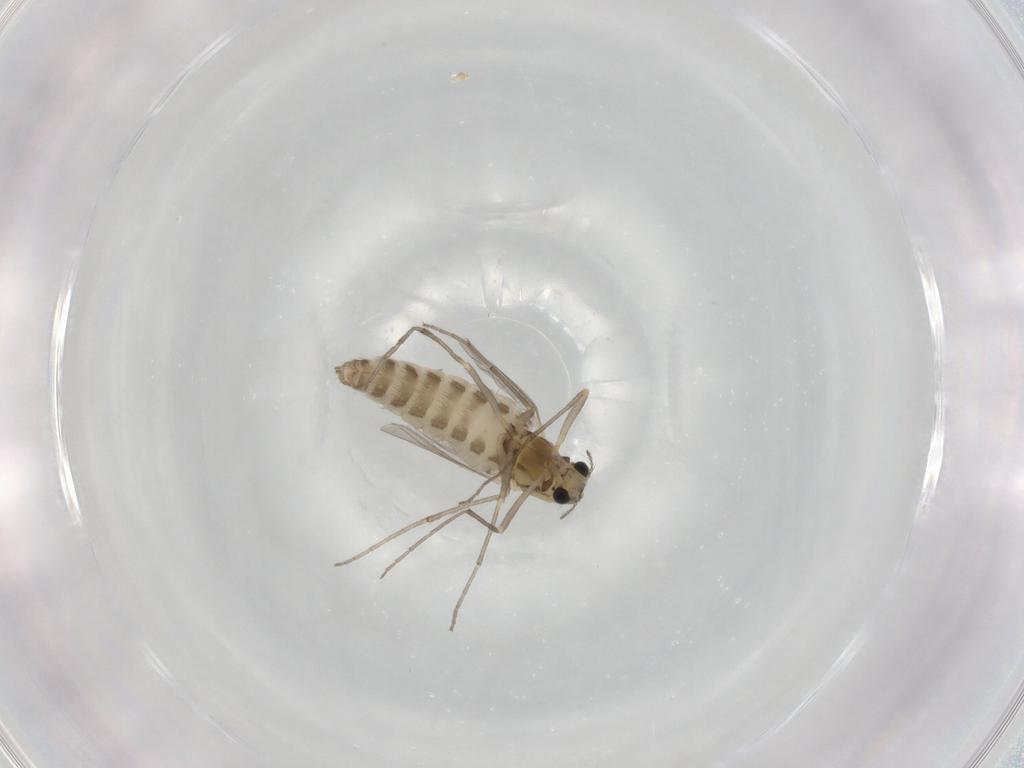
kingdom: Animalia
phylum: Arthropoda
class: Insecta
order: Diptera
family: Chironomidae
